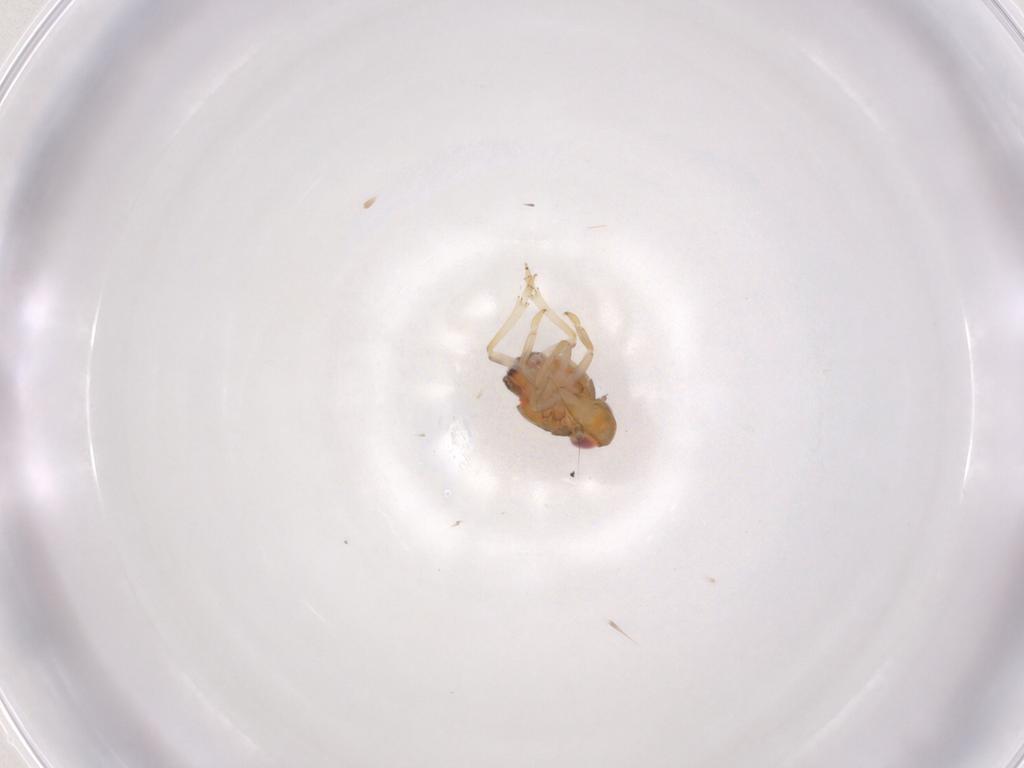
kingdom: Animalia
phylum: Arthropoda
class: Insecta
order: Hemiptera
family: Issidae
